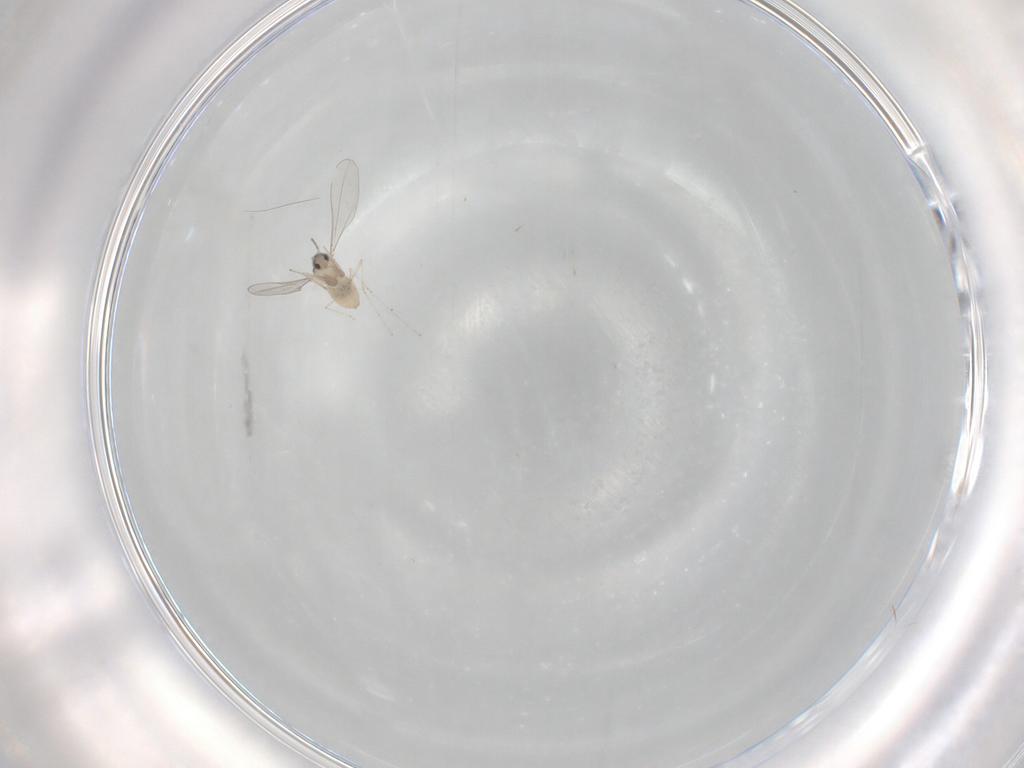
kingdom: Animalia
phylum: Arthropoda
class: Insecta
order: Diptera
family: Cecidomyiidae
